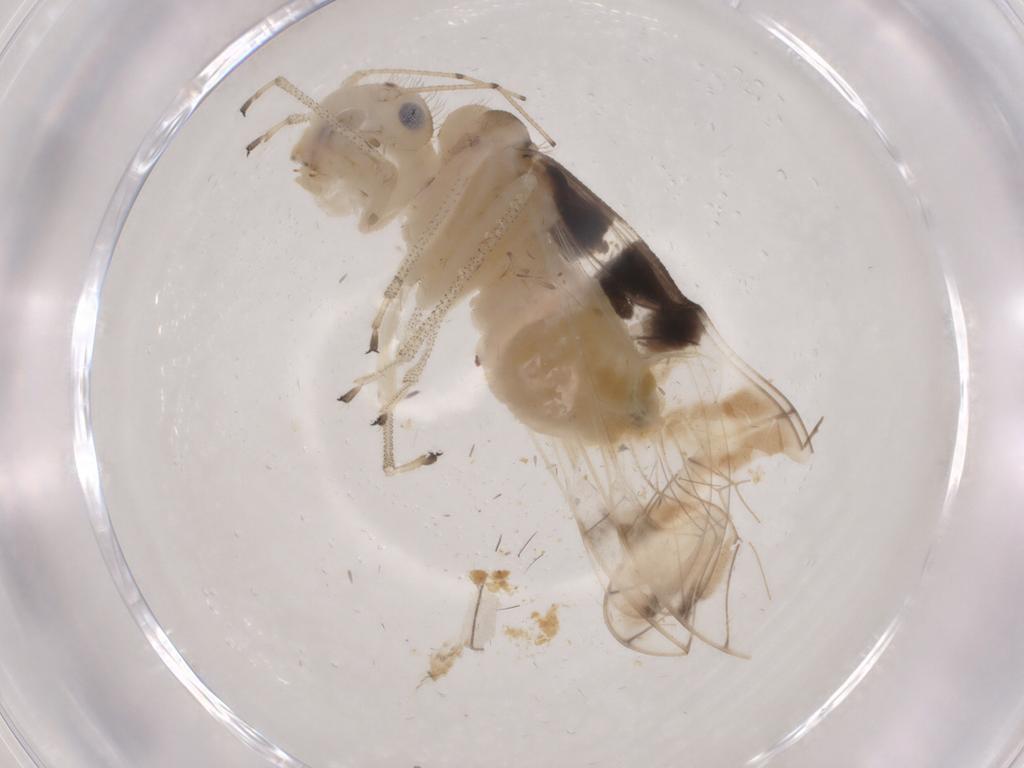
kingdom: Animalia
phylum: Arthropoda
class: Insecta
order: Psocodea
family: Amphipsocidae
